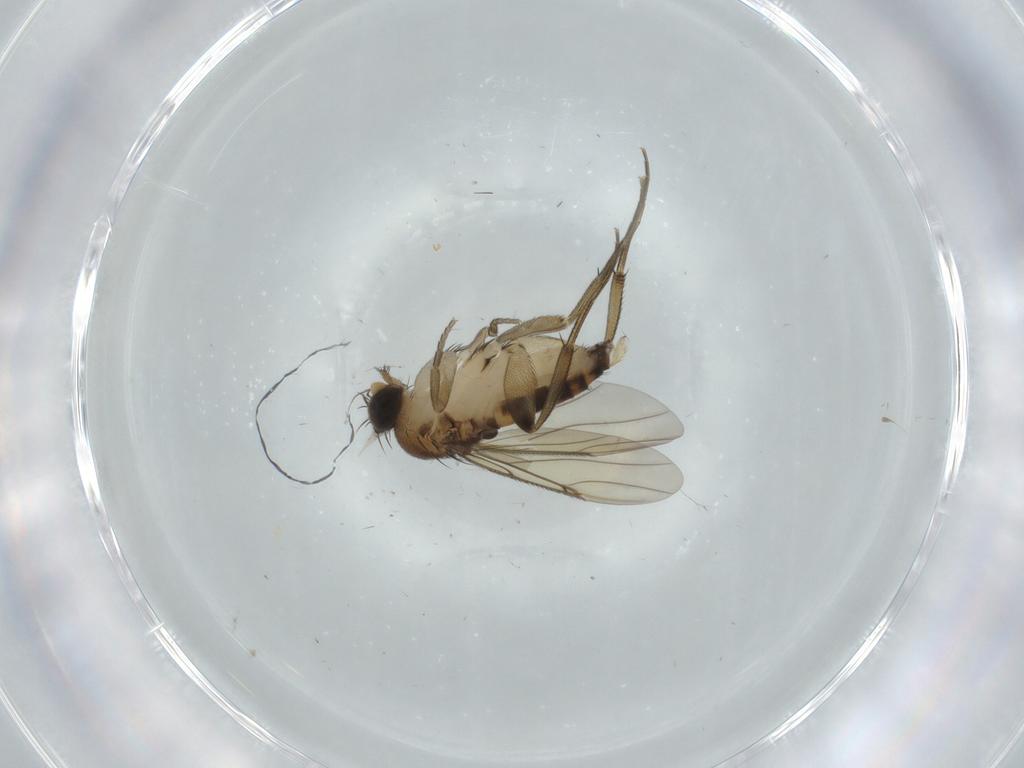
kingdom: Animalia
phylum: Arthropoda
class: Insecta
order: Diptera
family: Phoridae
